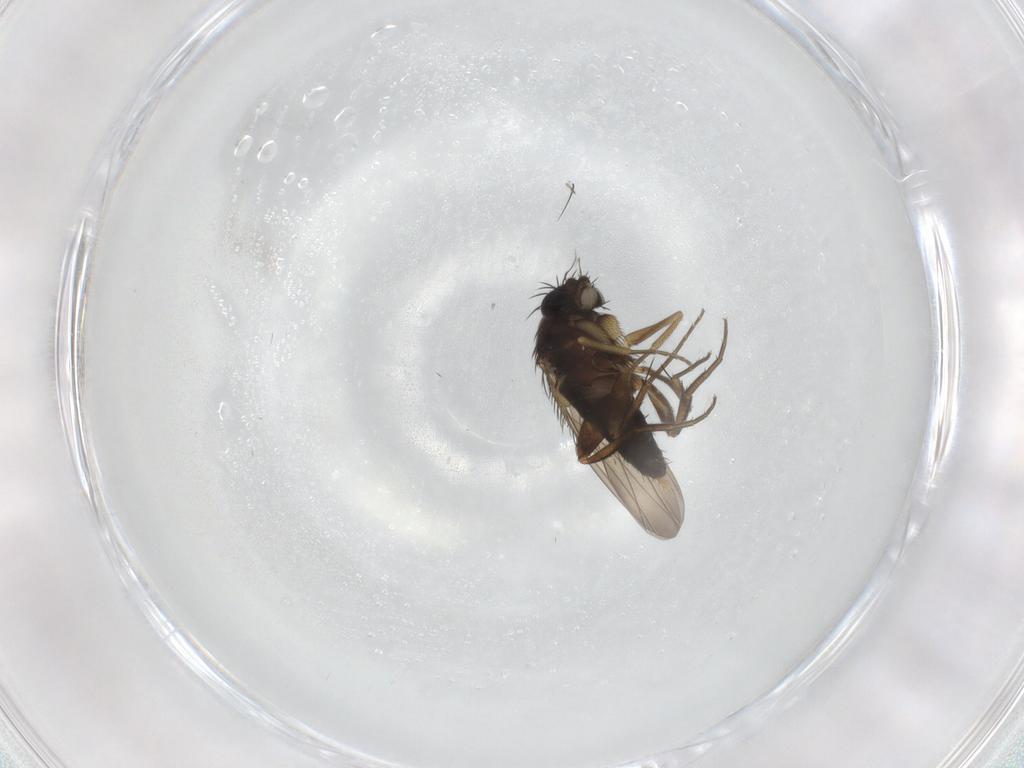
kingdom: Animalia
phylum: Arthropoda
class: Insecta
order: Diptera
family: Phoridae
